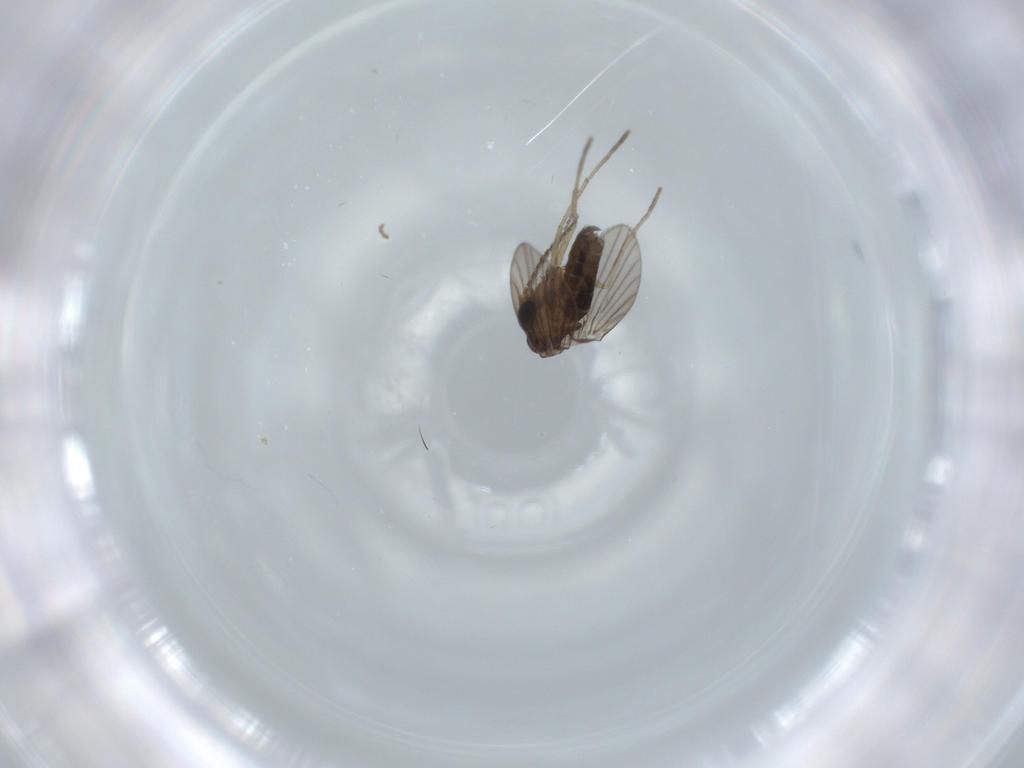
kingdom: Animalia
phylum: Arthropoda
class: Insecta
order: Diptera
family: Psychodidae
